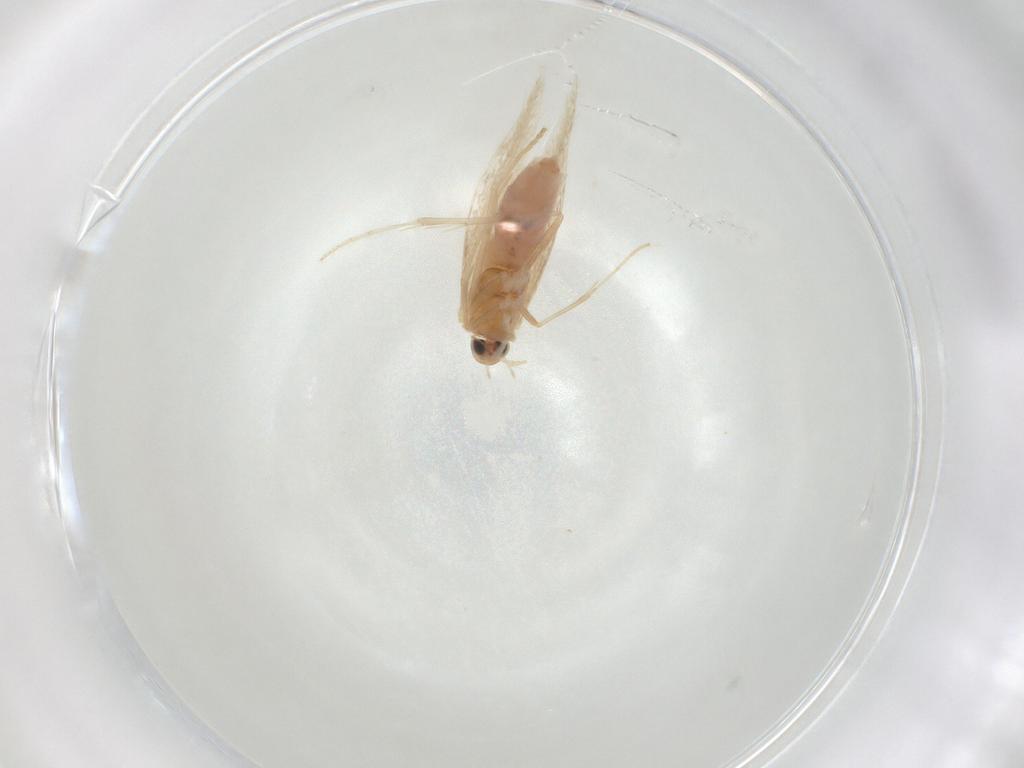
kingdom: Animalia
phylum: Arthropoda
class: Insecta
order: Lepidoptera
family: Coleophoridae
